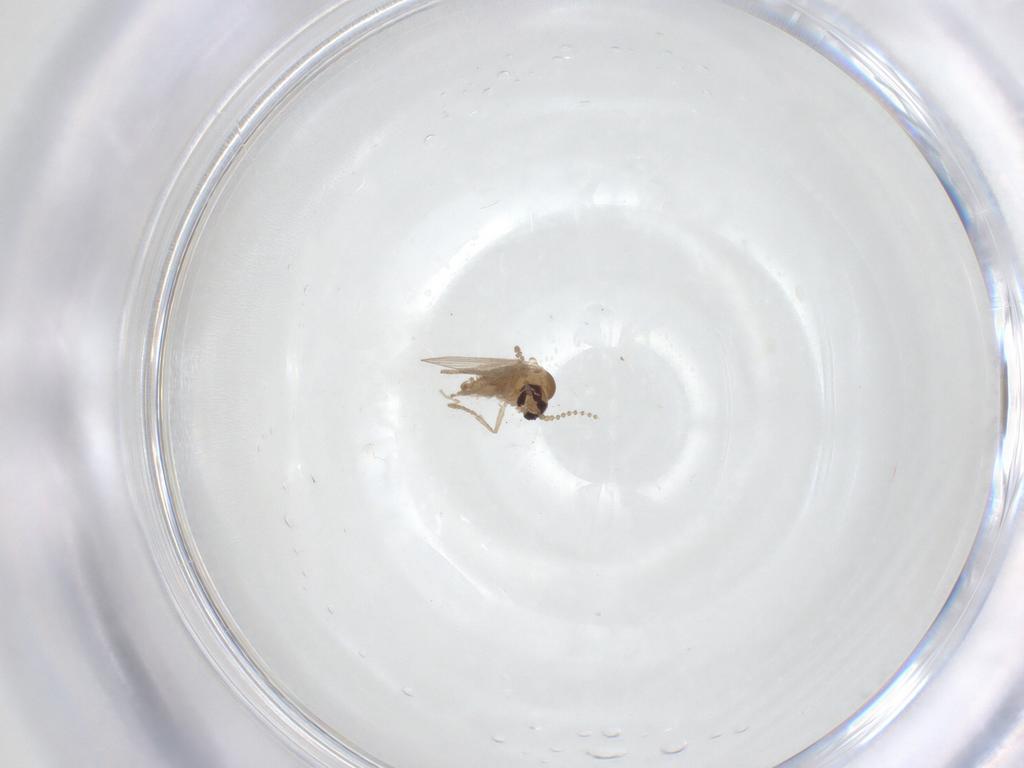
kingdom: Animalia
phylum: Arthropoda
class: Insecta
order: Diptera
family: Psychodidae
